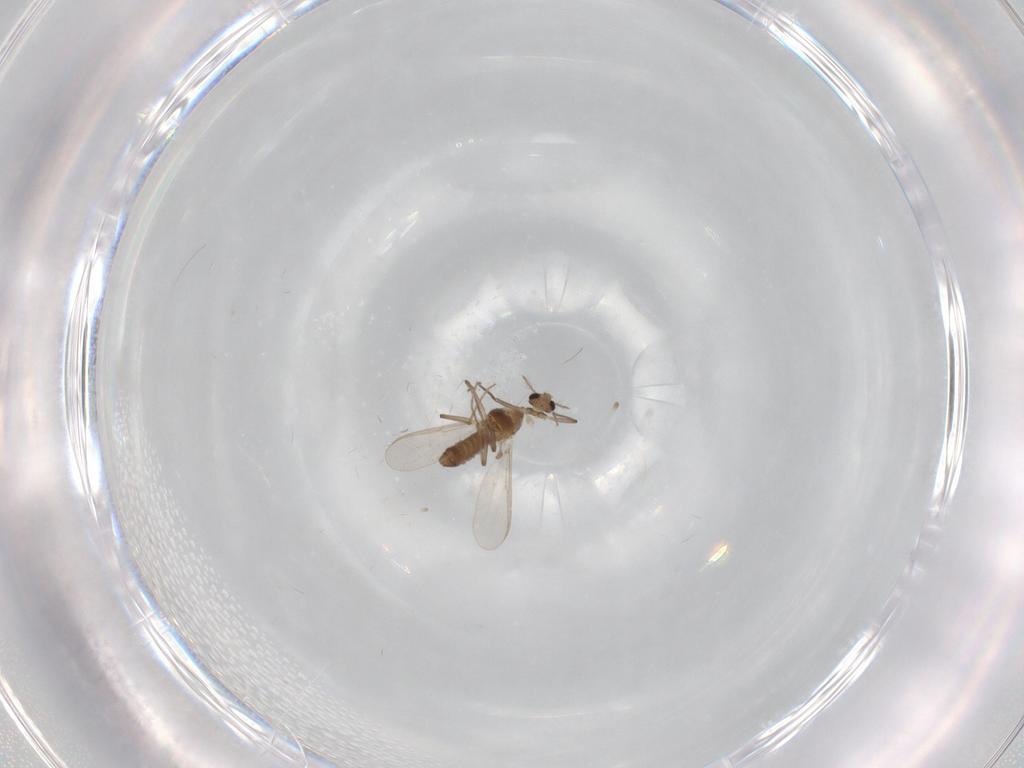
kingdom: Animalia
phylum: Arthropoda
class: Insecta
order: Diptera
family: Chironomidae
